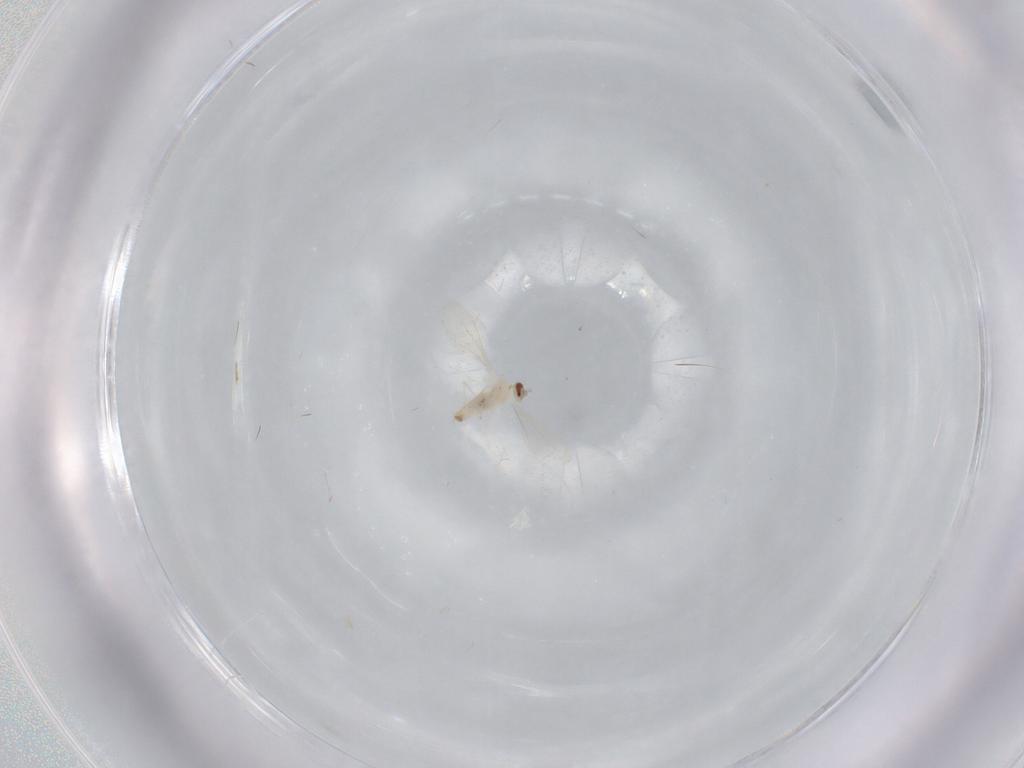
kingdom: Animalia
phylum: Arthropoda
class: Insecta
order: Diptera
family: Cecidomyiidae
